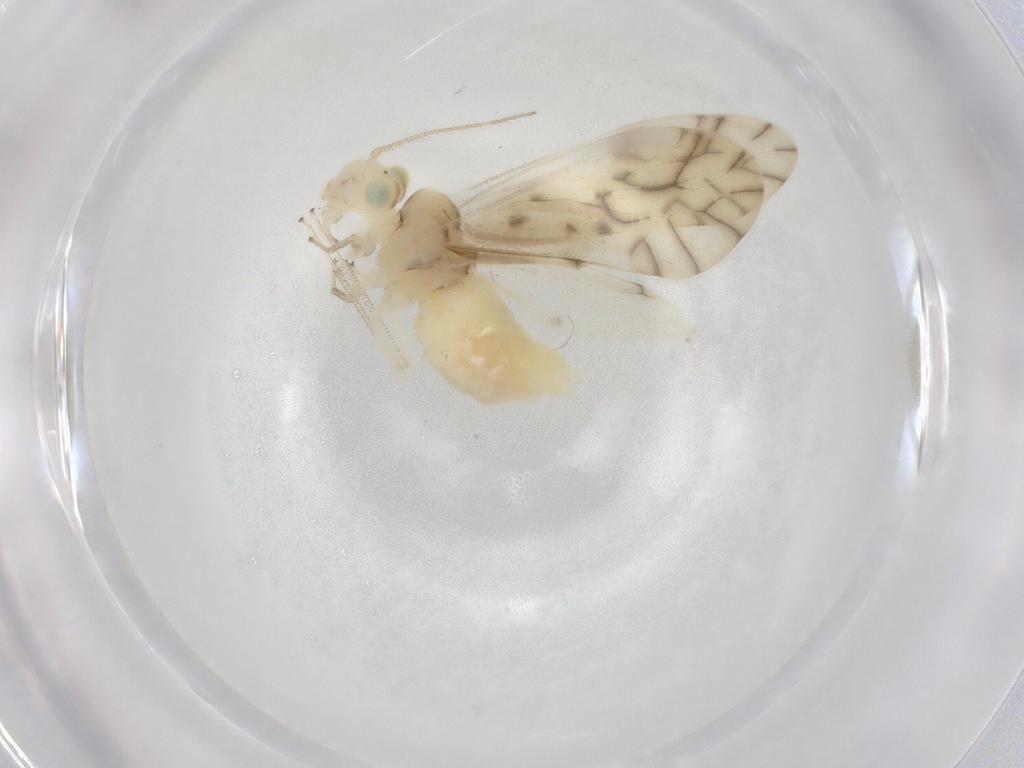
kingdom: Animalia
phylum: Arthropoda
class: Insecta
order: Psocodea
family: Caeciliusidae
